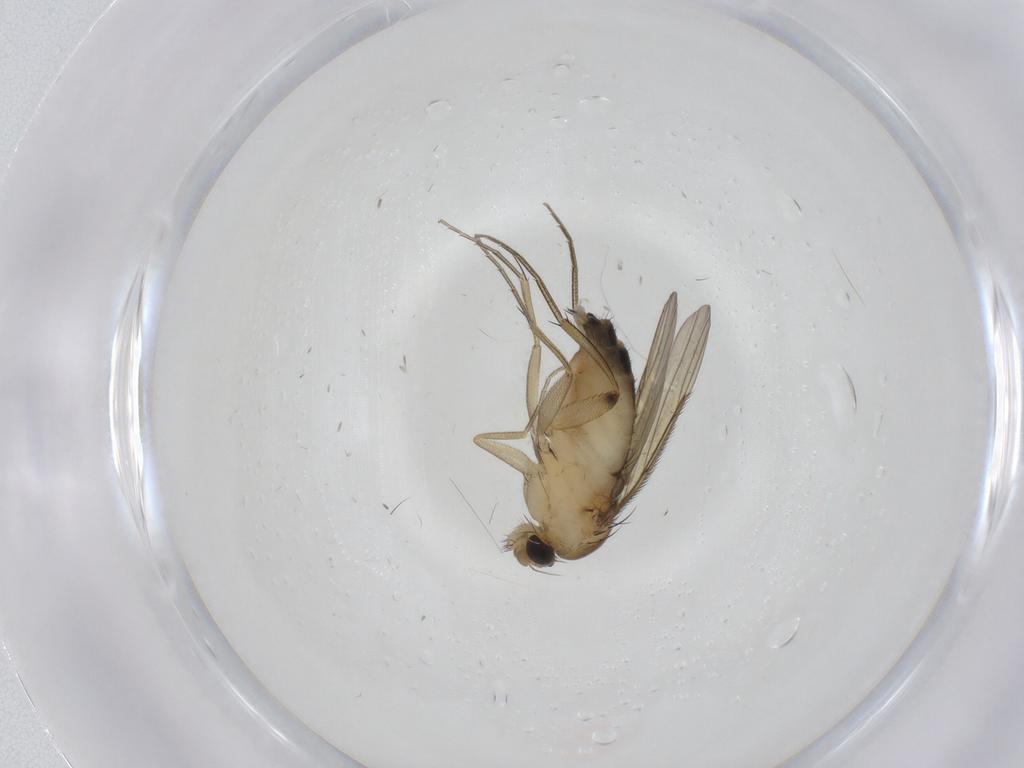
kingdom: Animalia
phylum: Arthropoda
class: Insecta
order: Diptera
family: Phoridae
